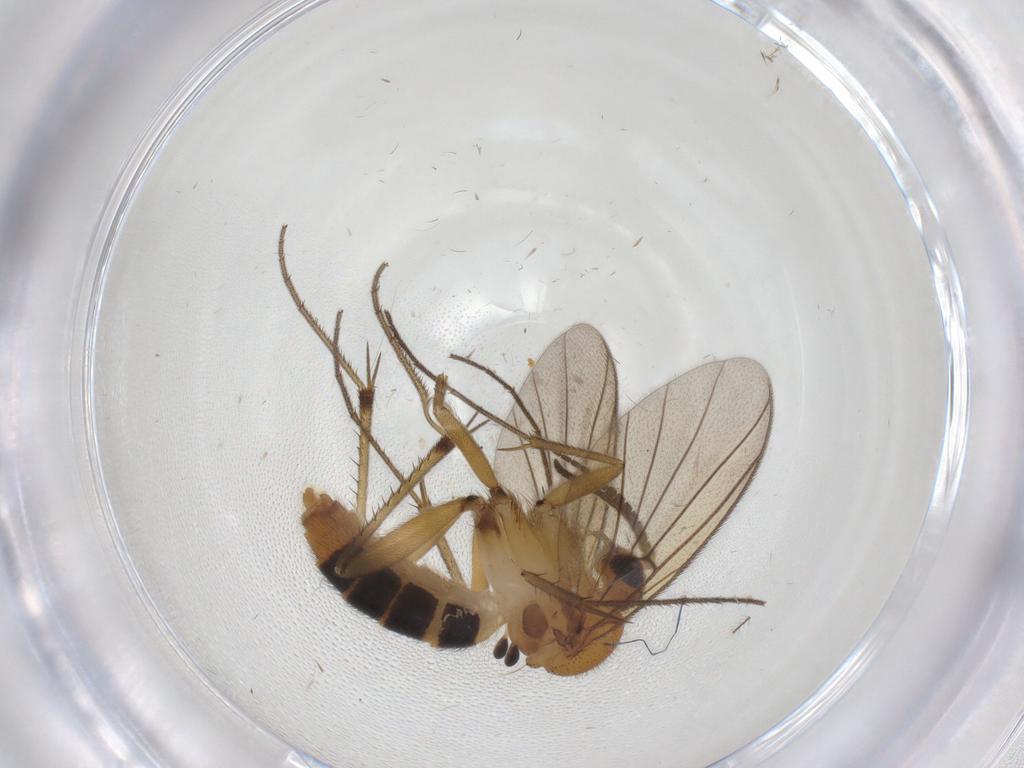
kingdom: Animalia
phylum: Arthropoda
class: Insecta
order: Diptera
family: Mycetophilidae
